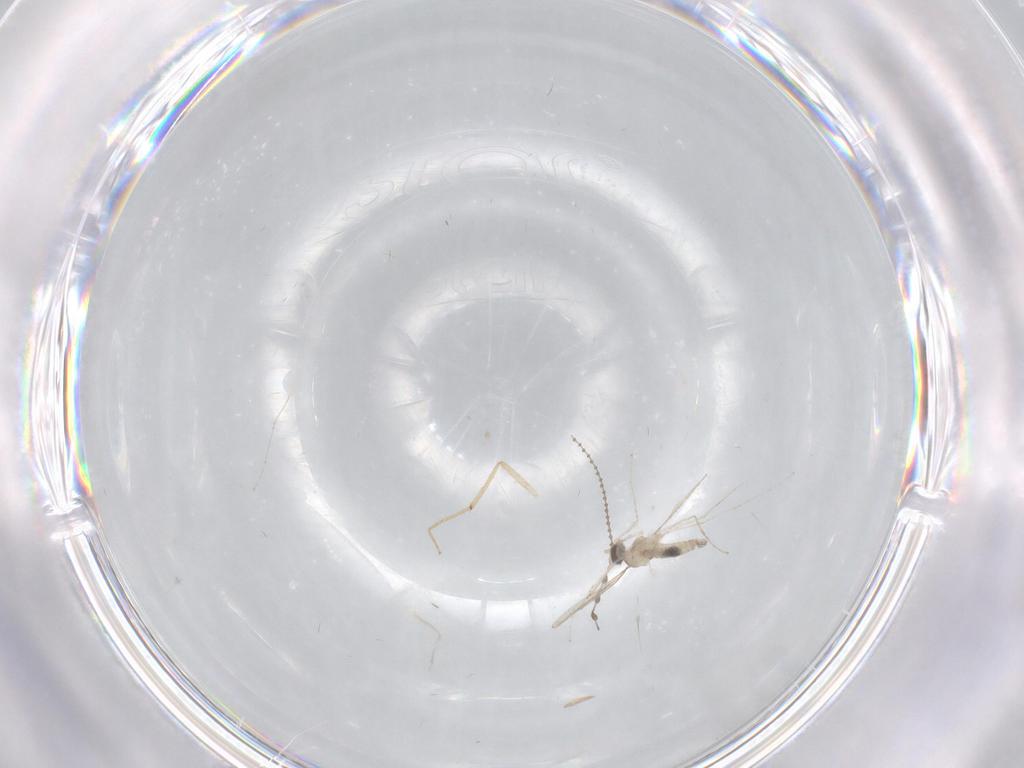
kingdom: Animalia
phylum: Arthropoda
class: Insecta
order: Diptera
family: Chironomidae
